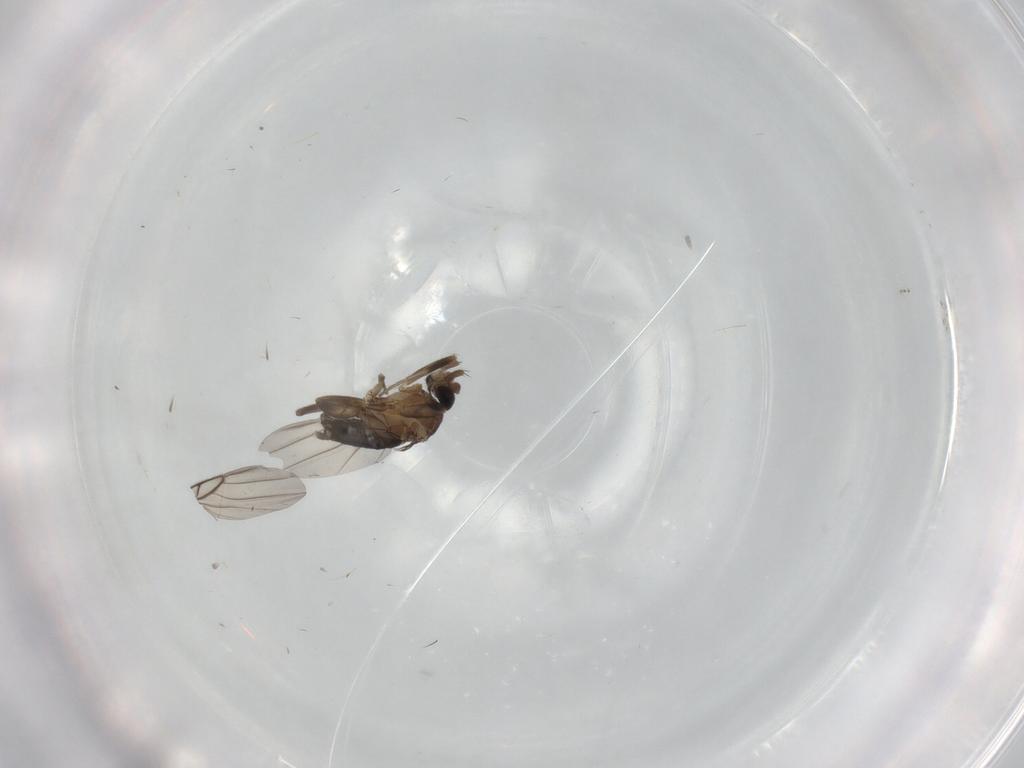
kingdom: Animalia
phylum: Arthropoda
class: Insecta
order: Diptera
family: Phoridae
